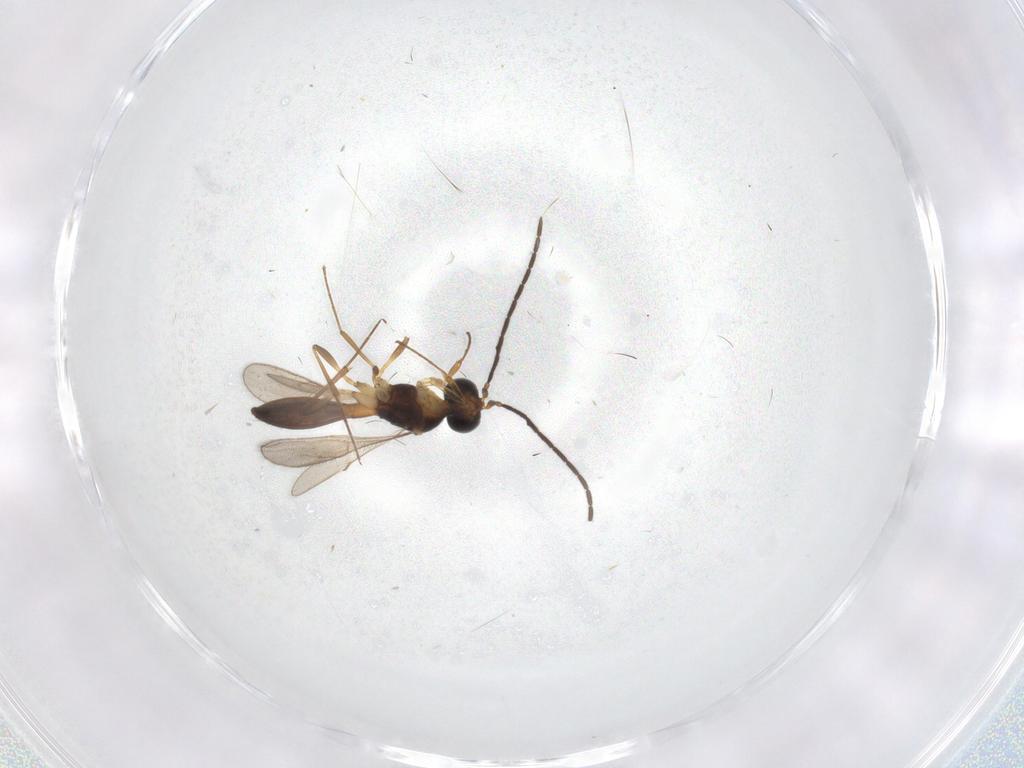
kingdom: Animalia
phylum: Arthropoda
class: Insecta
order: Hymenoptera
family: Scelionidae
